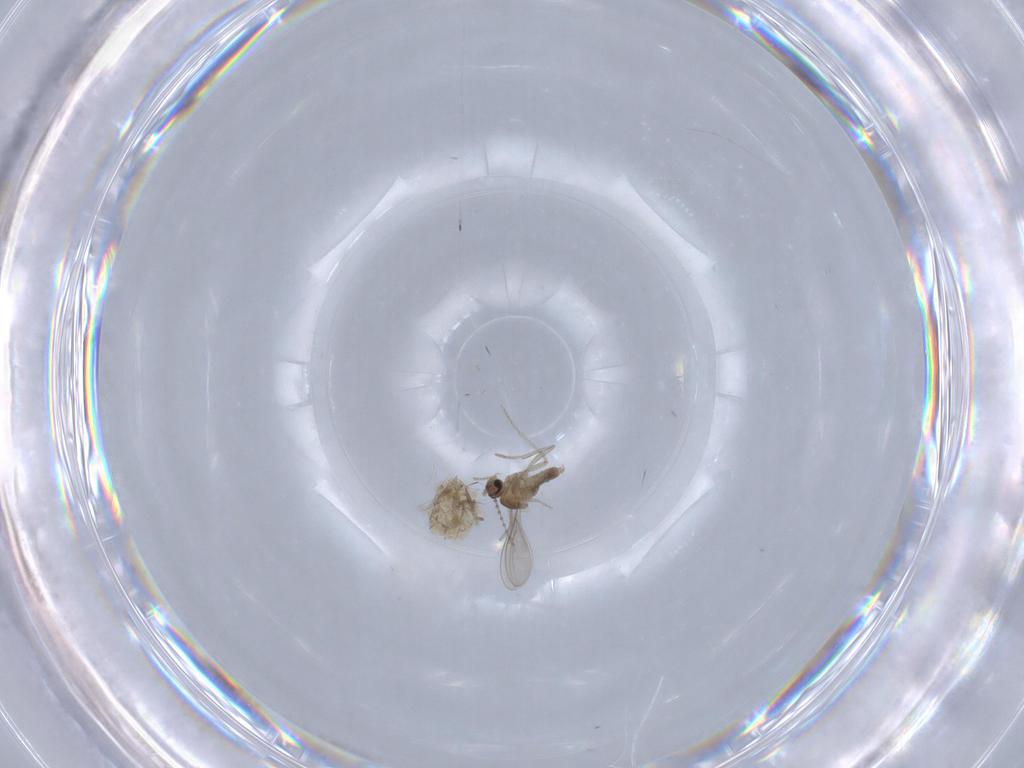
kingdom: Animalia
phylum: Arthropoda
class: Insecta
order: Diptera
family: Cecidomyiidae
